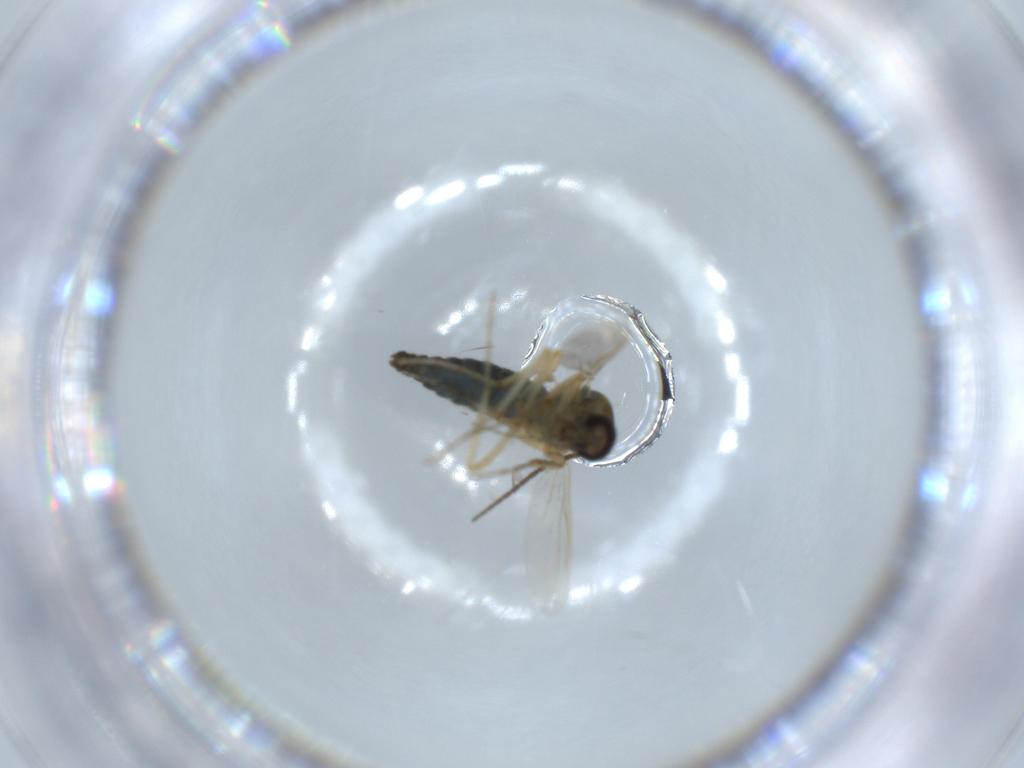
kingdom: Animalia
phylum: Arthropoda
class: Insecta
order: Diptera
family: Ceratopogonidae
